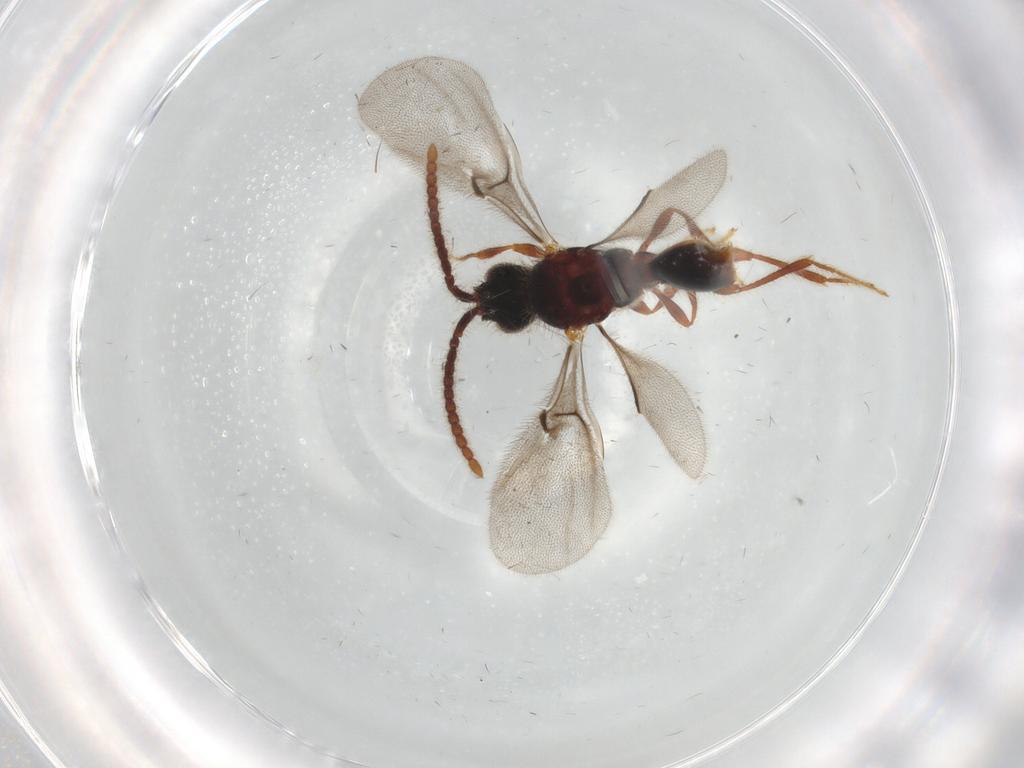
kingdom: Animalia
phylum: Arthropoda
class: Insecta
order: Hymenoptera
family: Diapriidae
